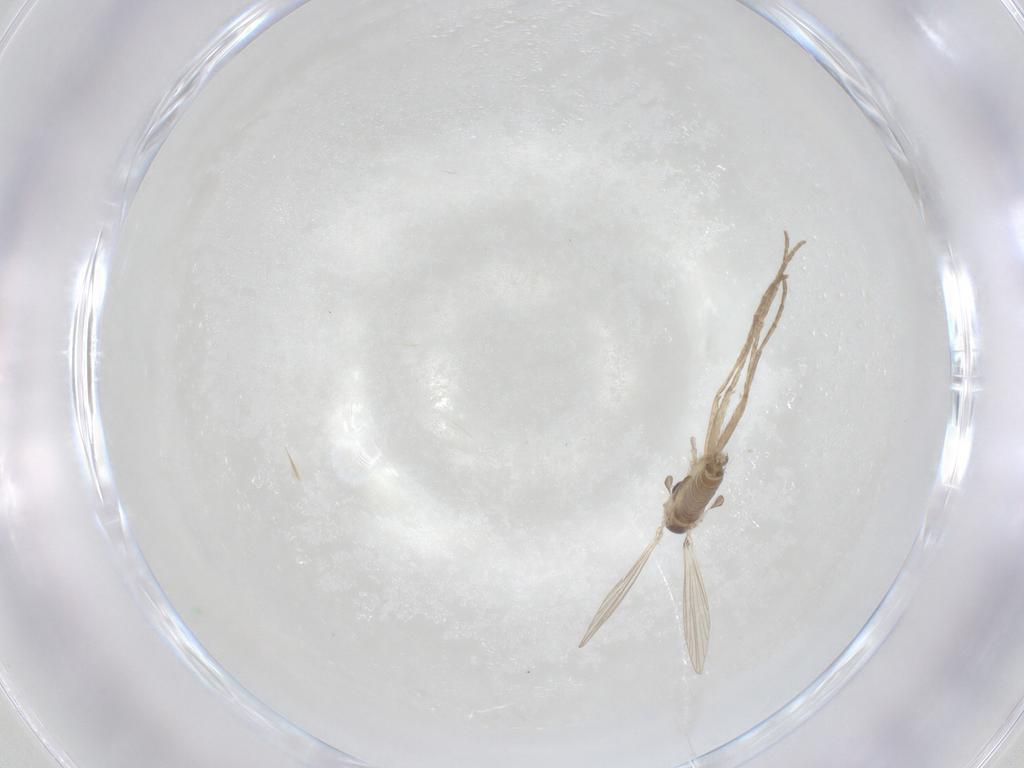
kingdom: Animalia
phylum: Arthropoda
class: Insecta
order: Diptera
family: Psychodidae
